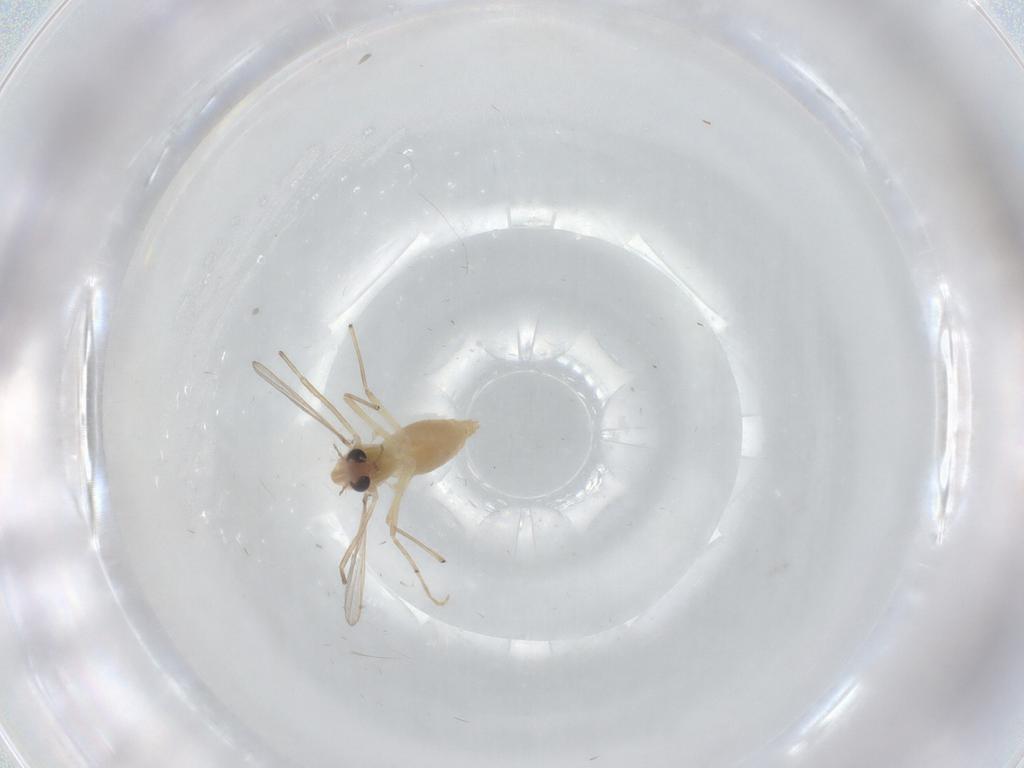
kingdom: Animalia
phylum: Arthropoda
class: Insecta
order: Diptera
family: Chironomidae
